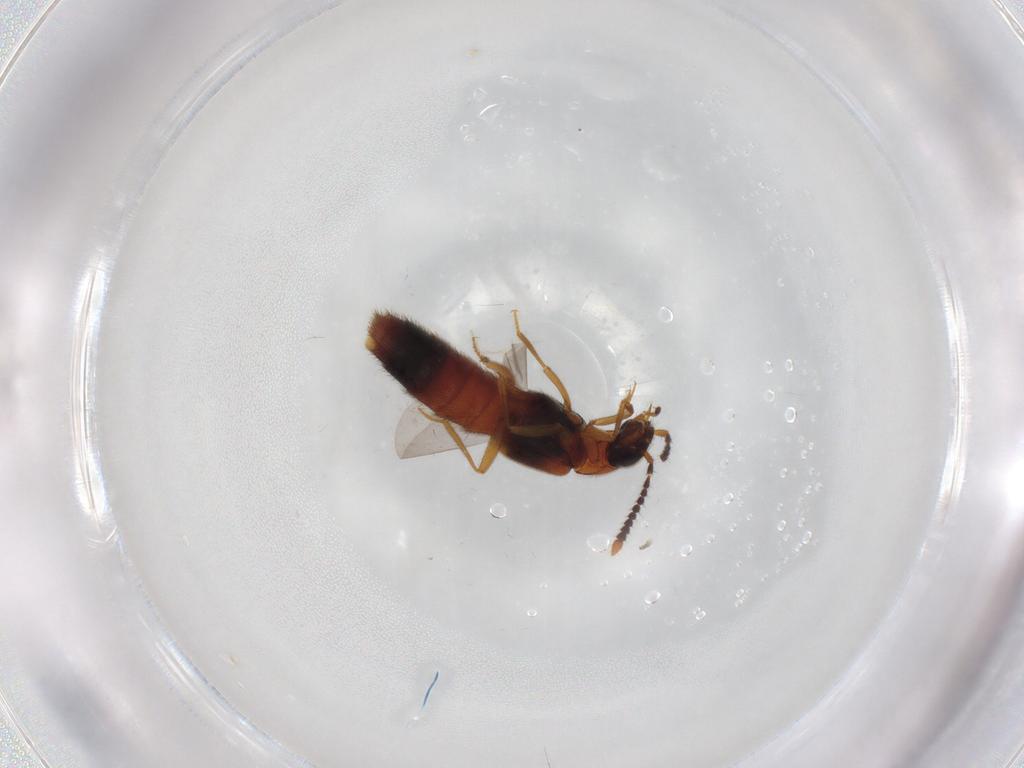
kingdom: Animalia
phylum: Arthropoda
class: Insecta
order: Coleoptera
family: Staphylinidae
